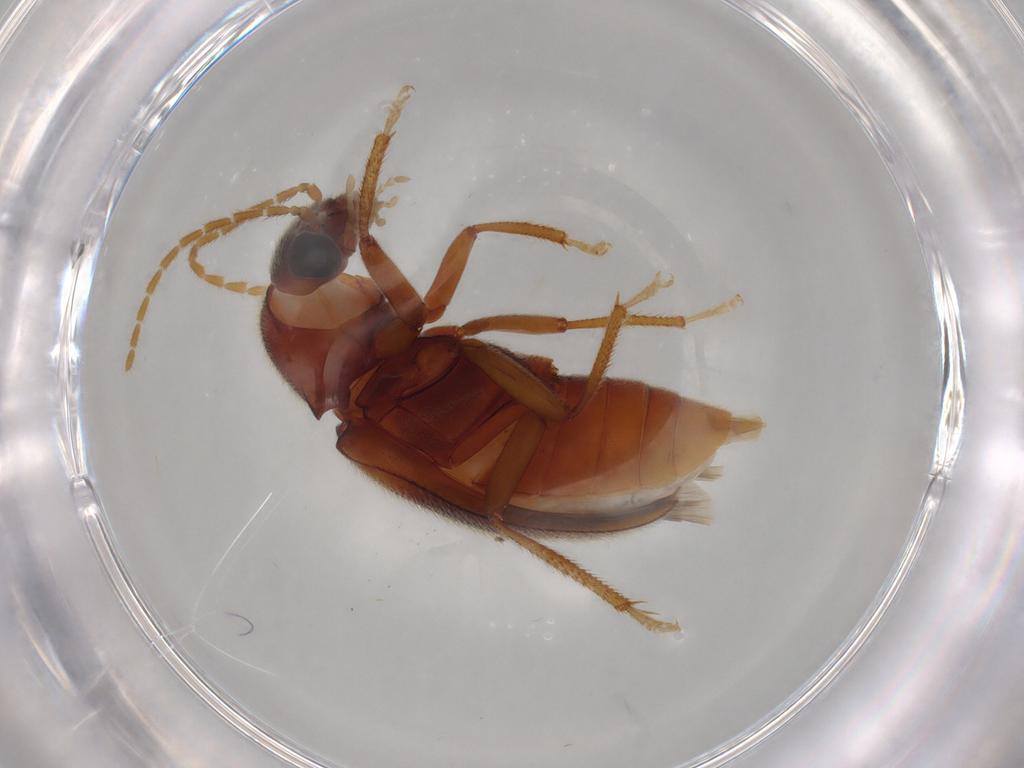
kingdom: Animalia
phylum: Arthropoda
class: Insecta
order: Coleoptera
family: Ptilodactylidae
